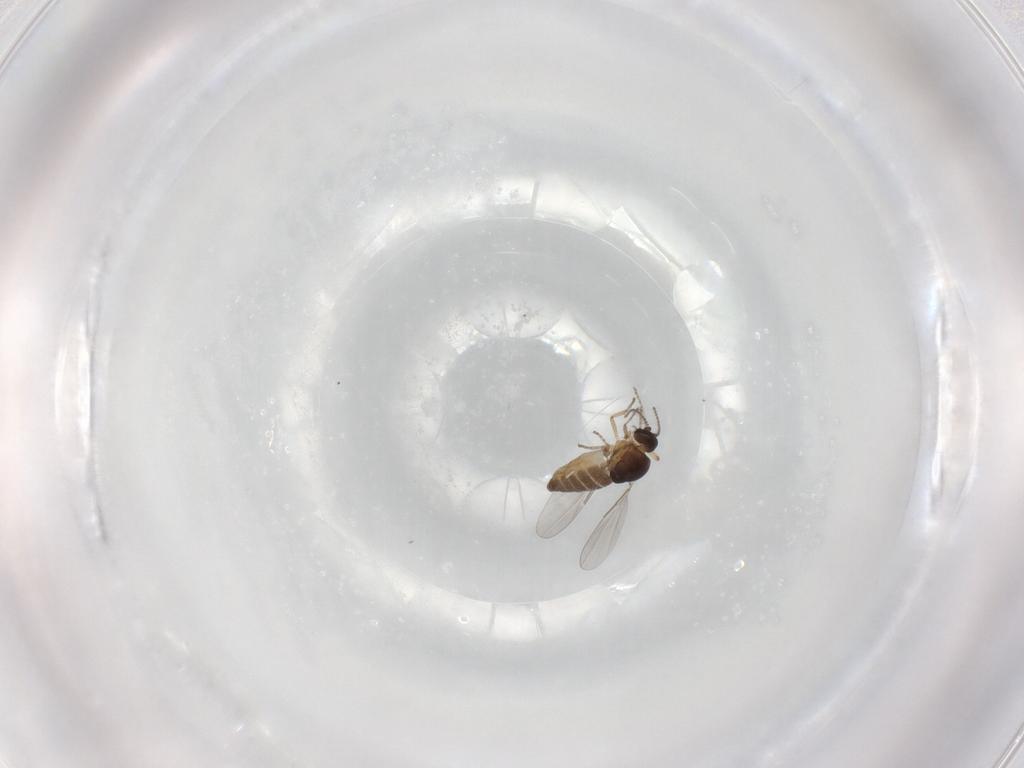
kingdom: Animalia
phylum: Arthropoda
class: Insecta
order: Diptera
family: Ceratopogonidae
